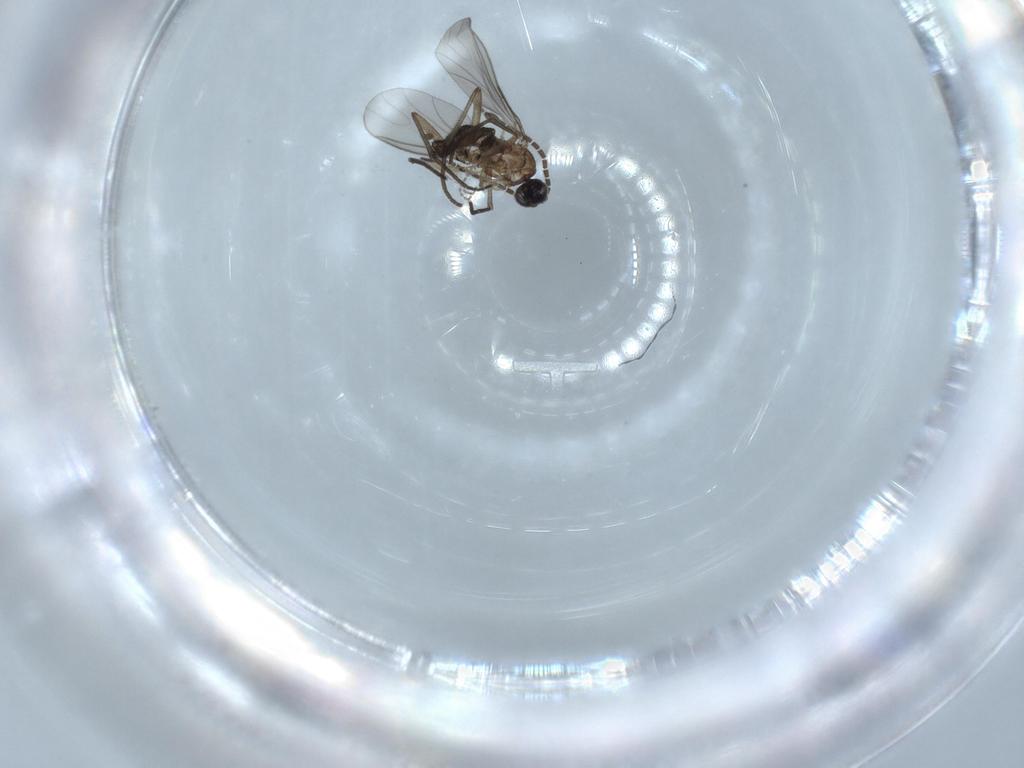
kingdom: Animalia
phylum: Arthropoda
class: Insecta
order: Diptera
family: Sciaridae
